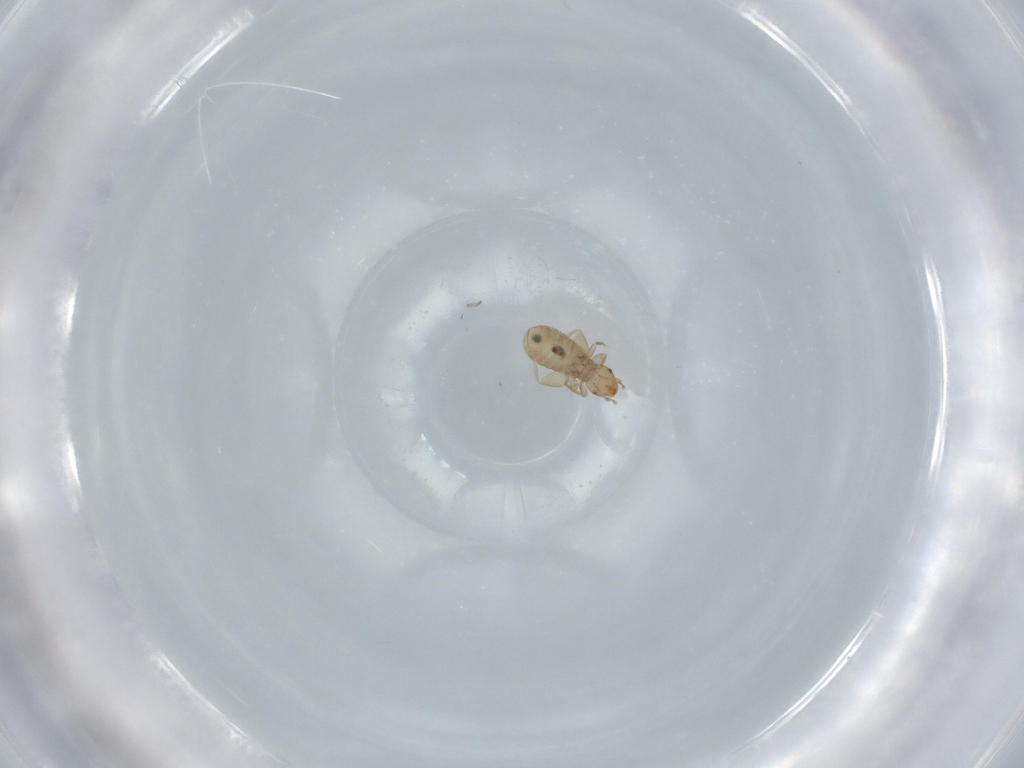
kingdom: Animalia
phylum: Arthropoda
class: Insecta
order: Psocodea
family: Liposcelididae
